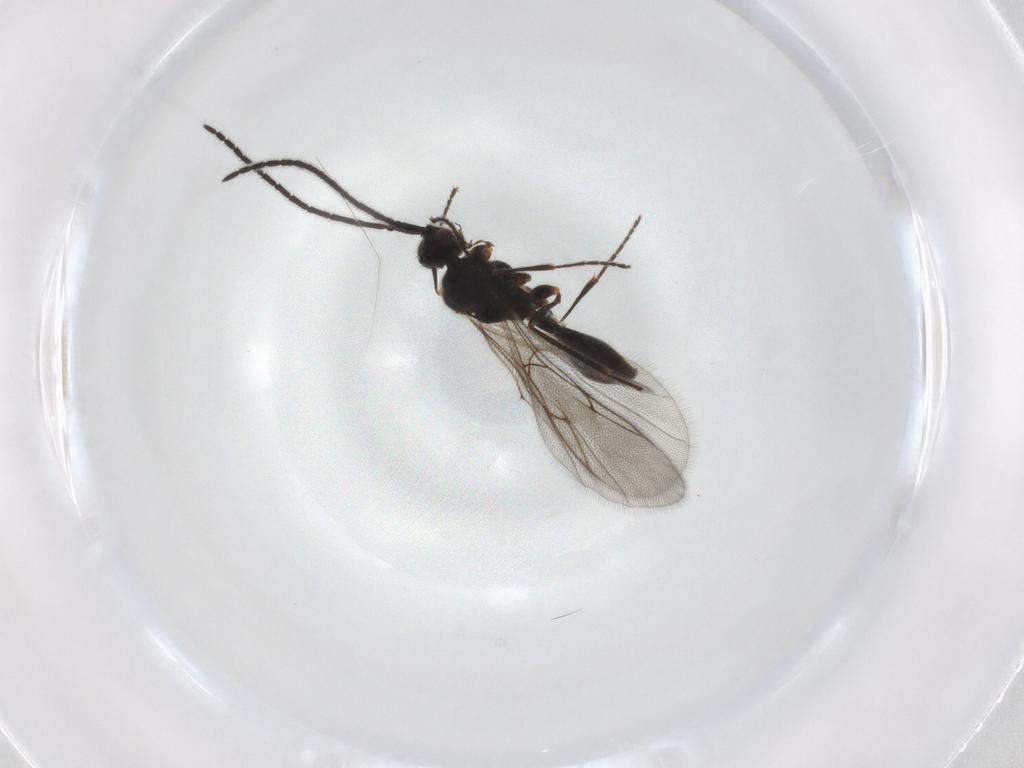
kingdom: Animalia
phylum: Arthropoda
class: Insecta
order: Hymenoptera
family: Diapriidae
